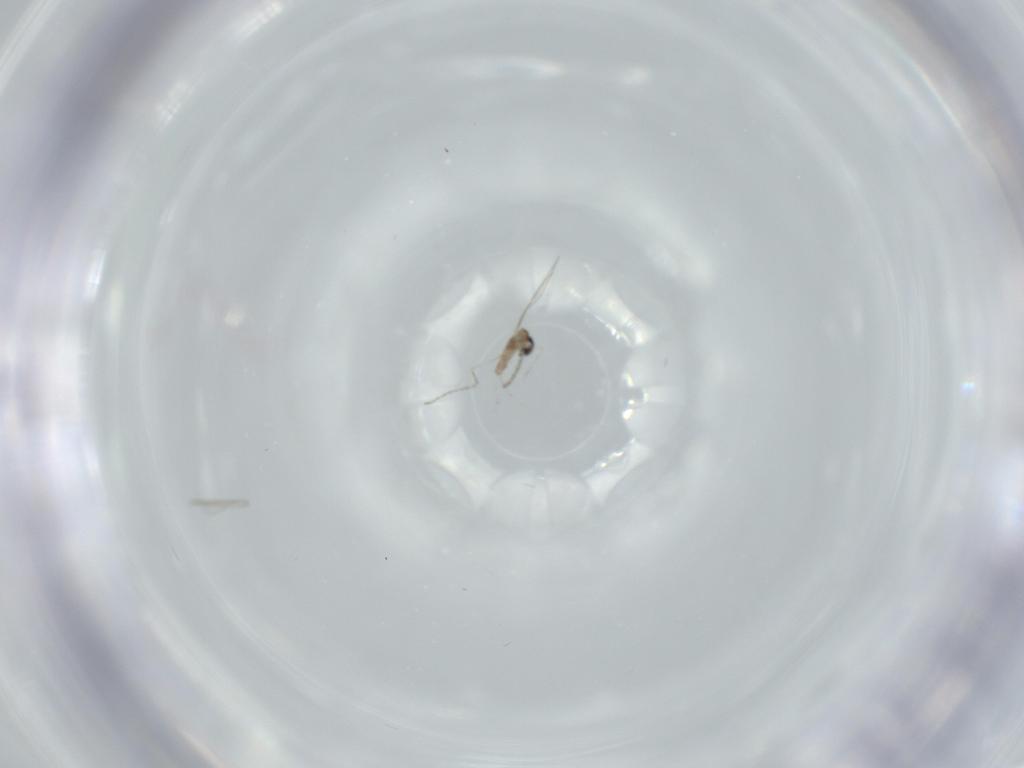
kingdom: Animalia
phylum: Arthropoda
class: Insecta
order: Diptera
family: Cecidomyiidae
